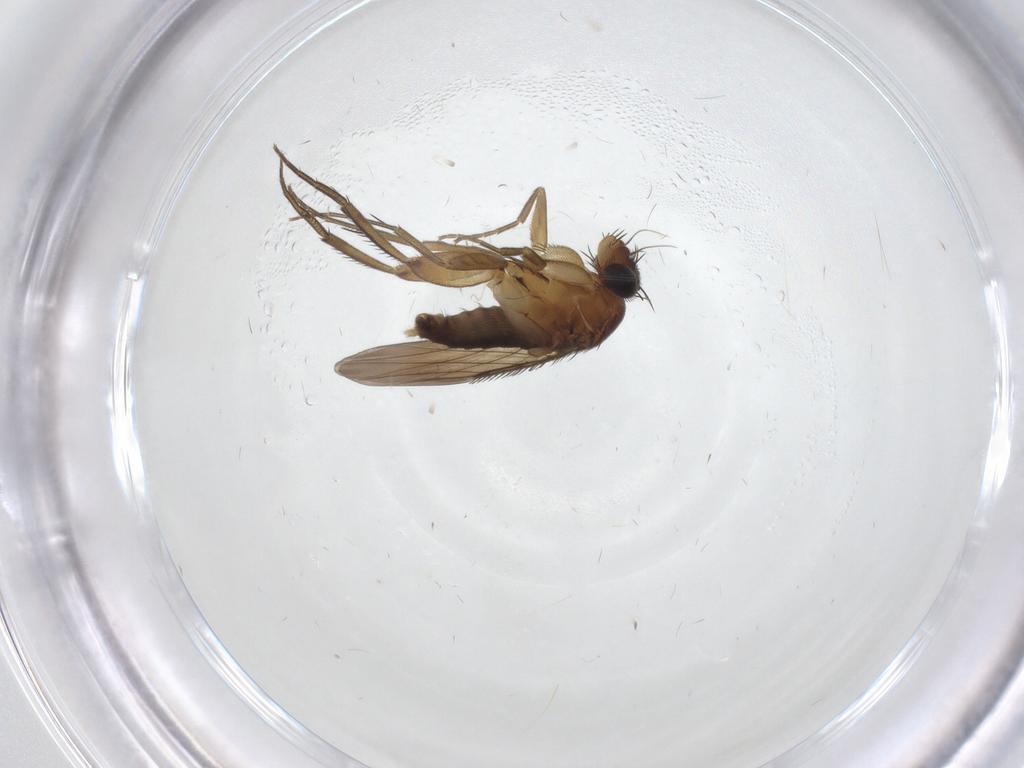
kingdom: Animalia
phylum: Arthropoda
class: Insecta
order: Diptera
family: Phoridae
